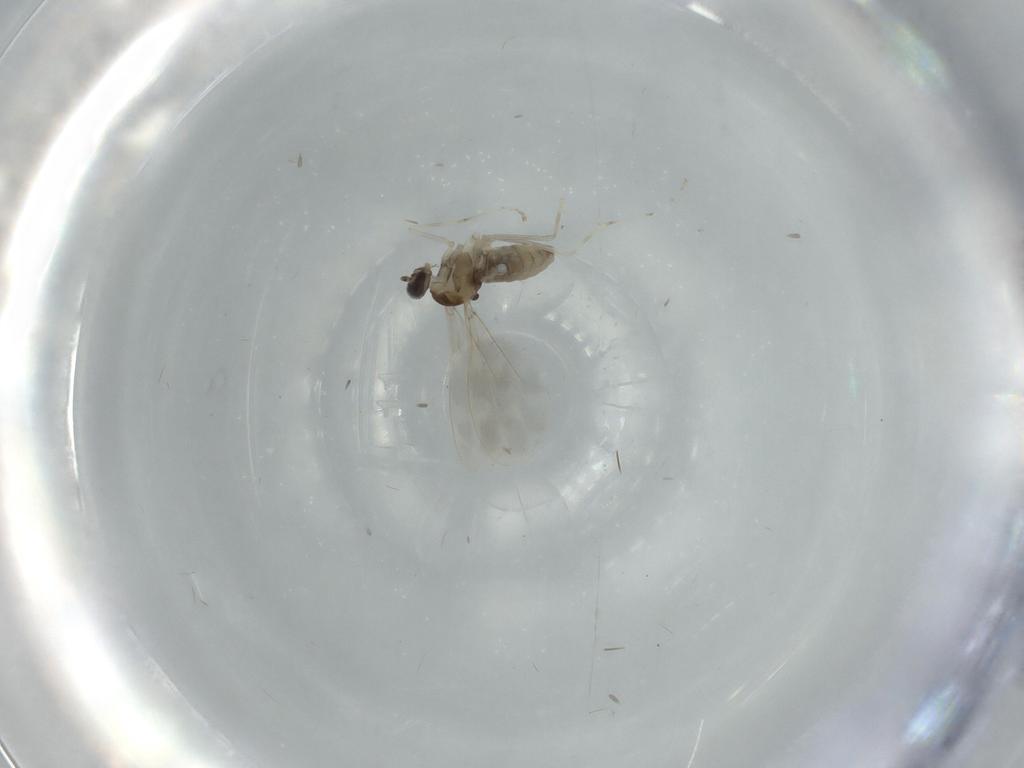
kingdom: Animalia
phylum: Arthropoda
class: Insecta
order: Diptera
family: Cecidomyiidae
